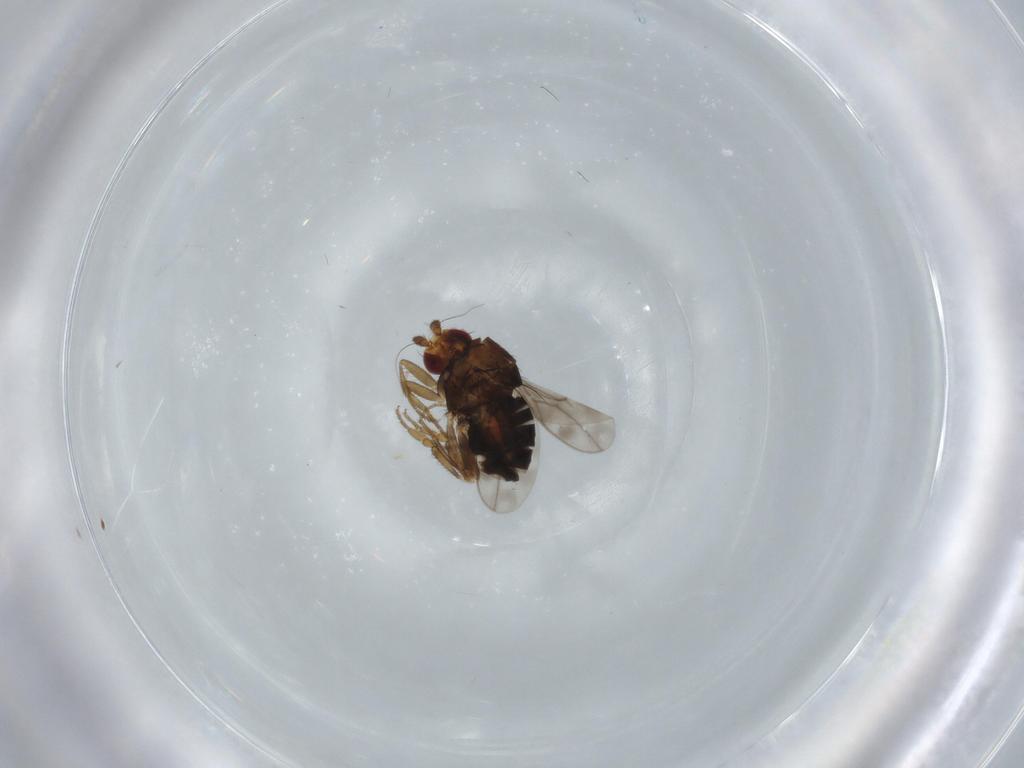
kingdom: Animalia
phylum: Arthropoda
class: Insecta
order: Diptera
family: Sphaeroceridae
